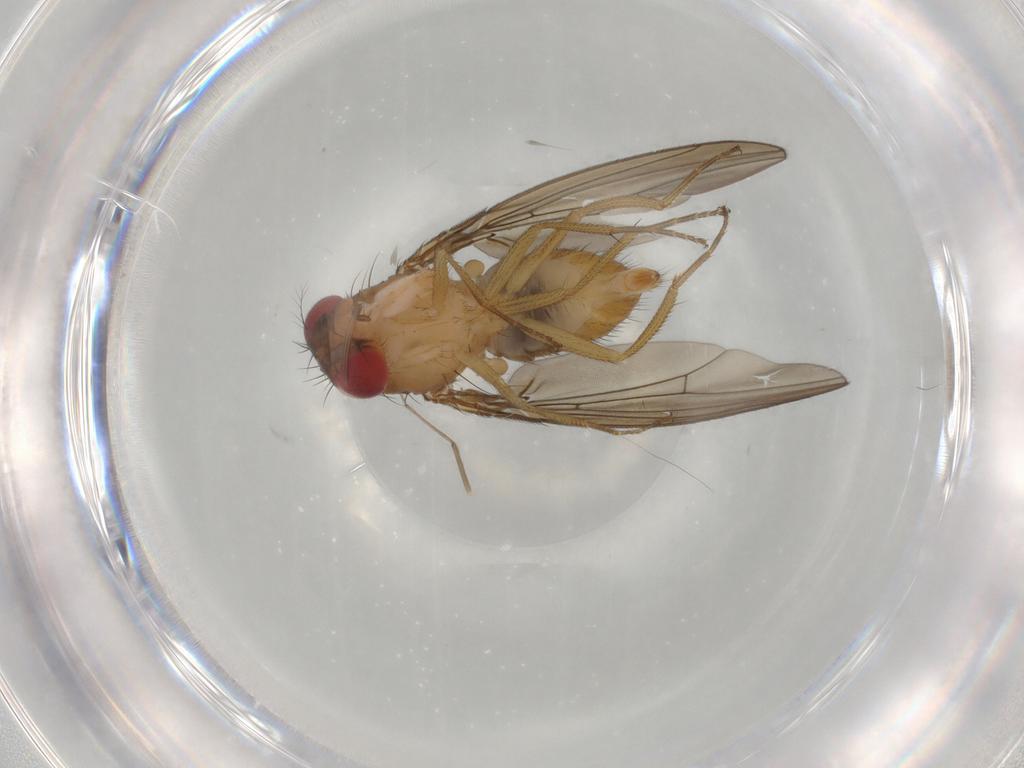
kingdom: Animalia
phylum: Arthropoda
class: Insecta
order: Diptera
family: Drosophilidae
